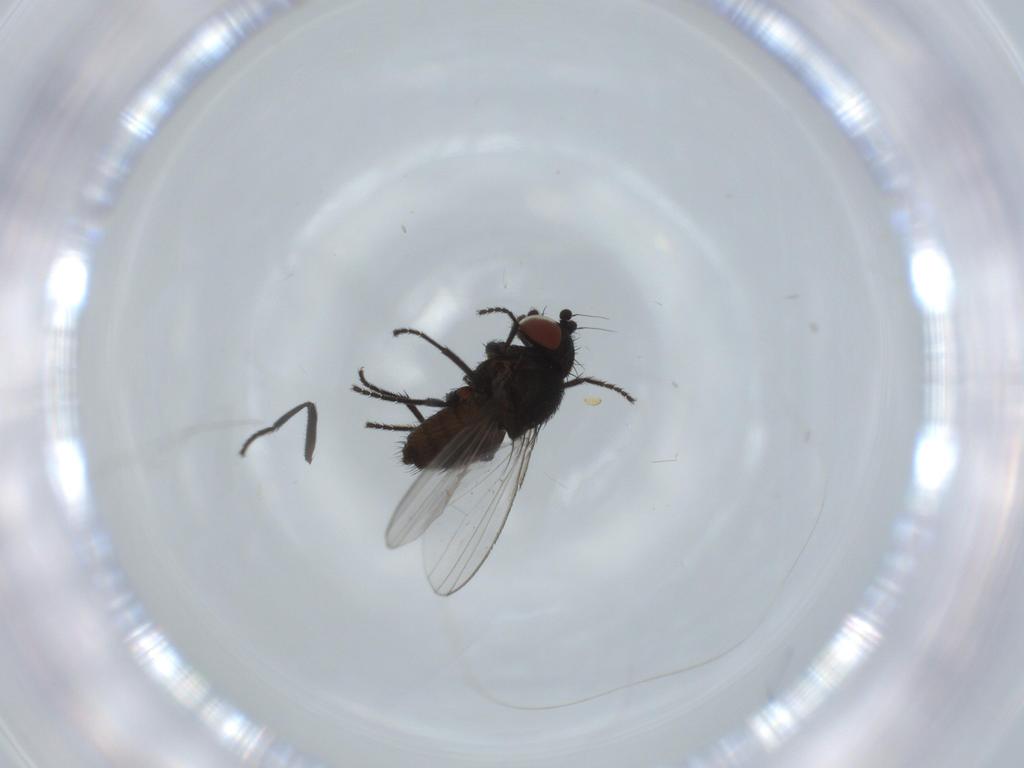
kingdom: Animalia
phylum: Arthropoda
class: Insecta
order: Diptera
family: Milichiidae
